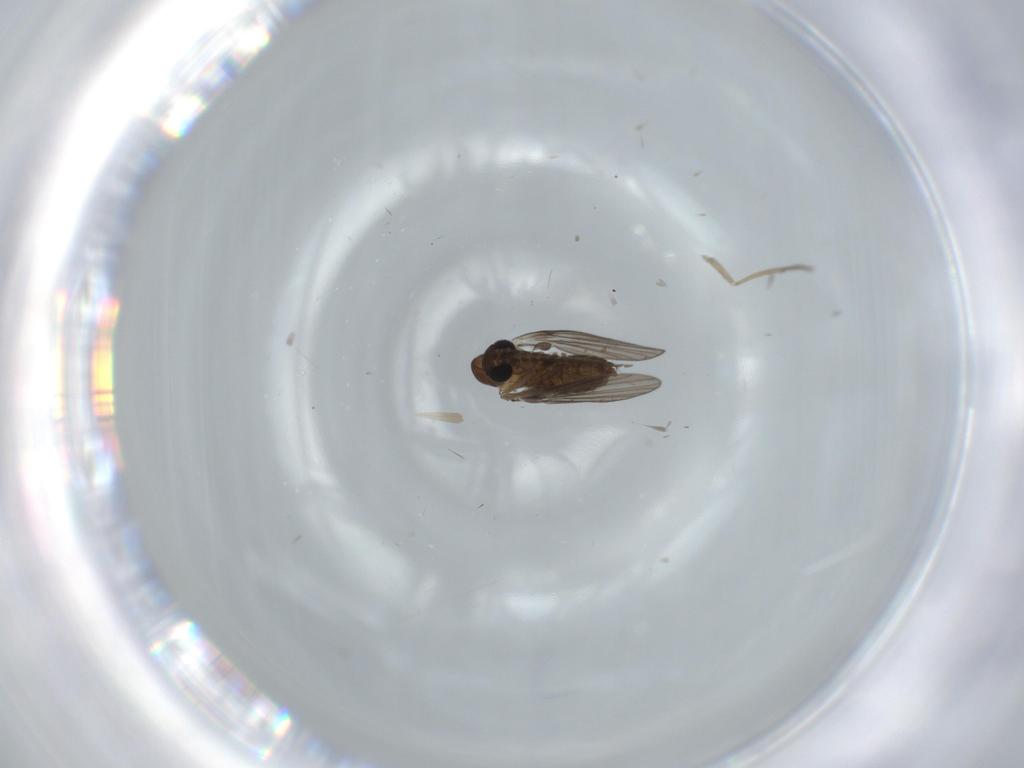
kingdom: Animalia
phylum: Arthropoda
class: Insecta
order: Diptera
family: Psychodidae
